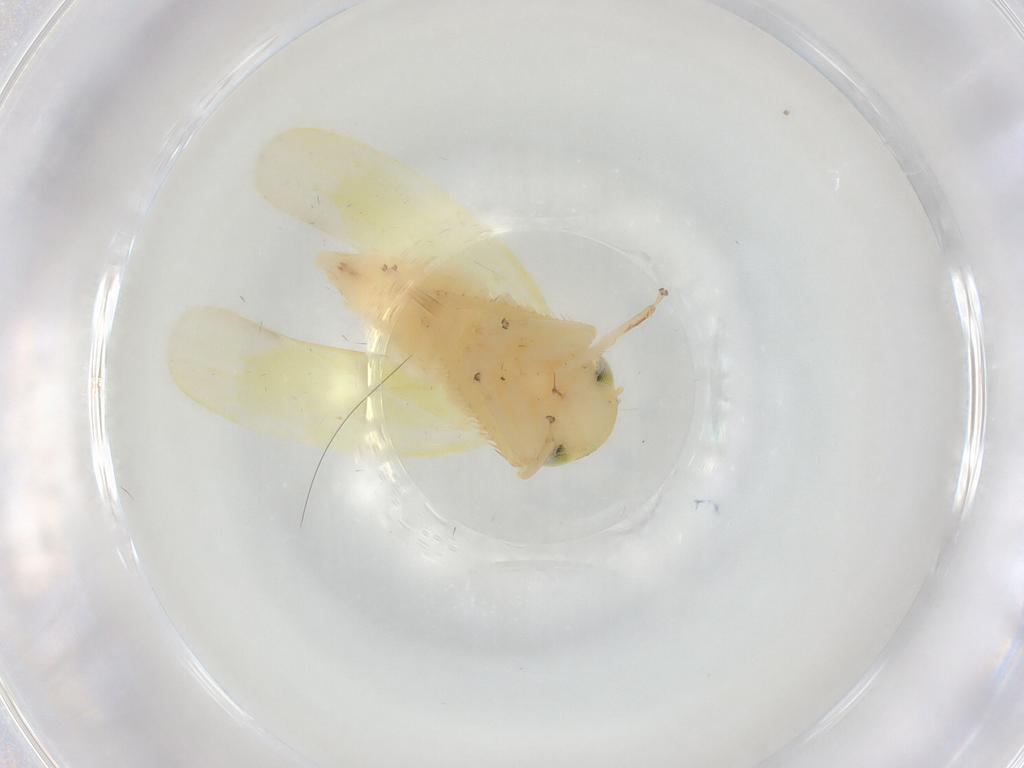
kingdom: Animalia
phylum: Arthropoda
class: Insecta
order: Hemiptera
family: Cicadellidae
